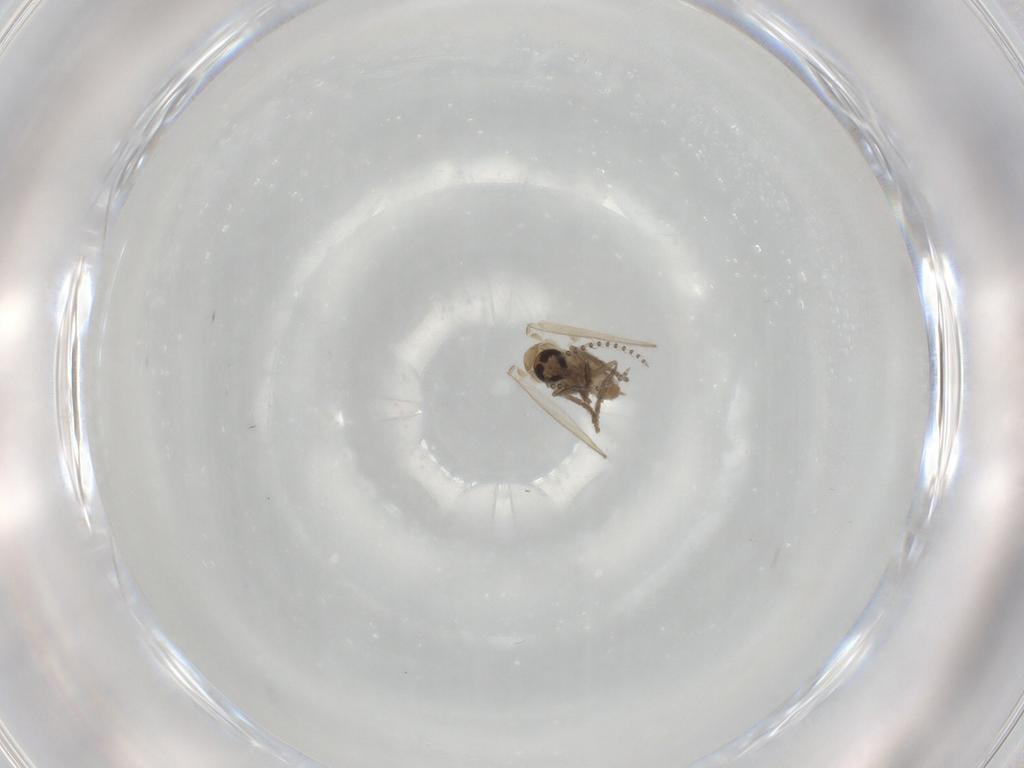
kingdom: Animalia
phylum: Arthropoda
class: Insecta
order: Diptera
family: Psychodidae
